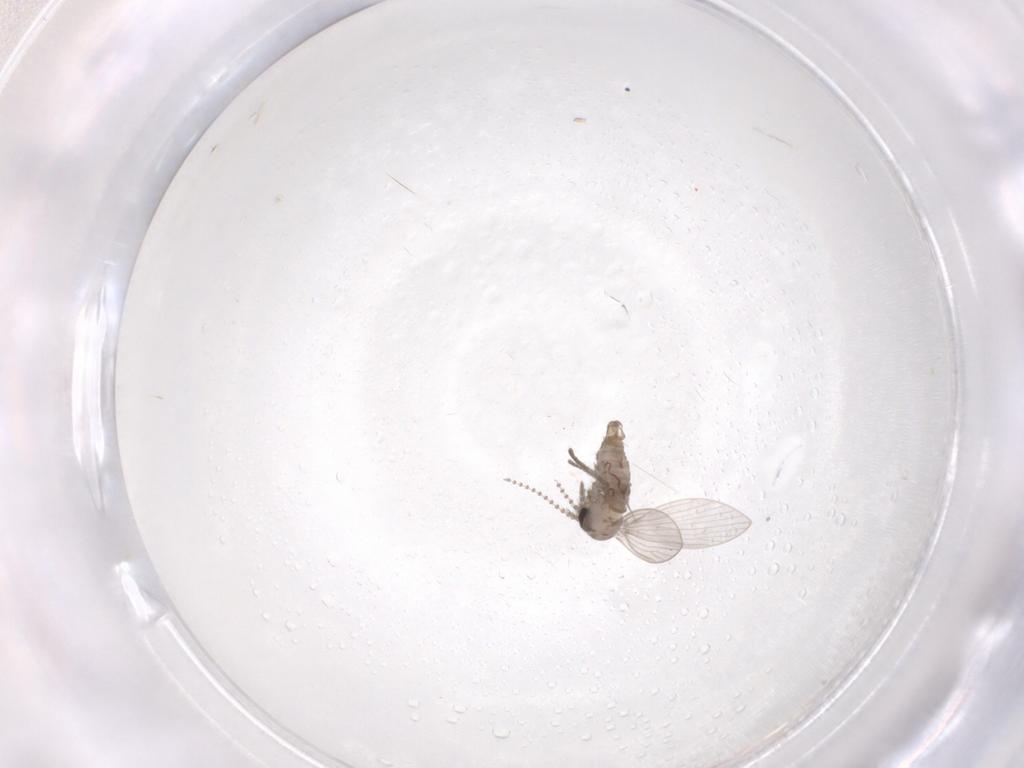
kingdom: Animalia
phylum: Arthropoda
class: Insecta
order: Diptera
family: Psychodidae
